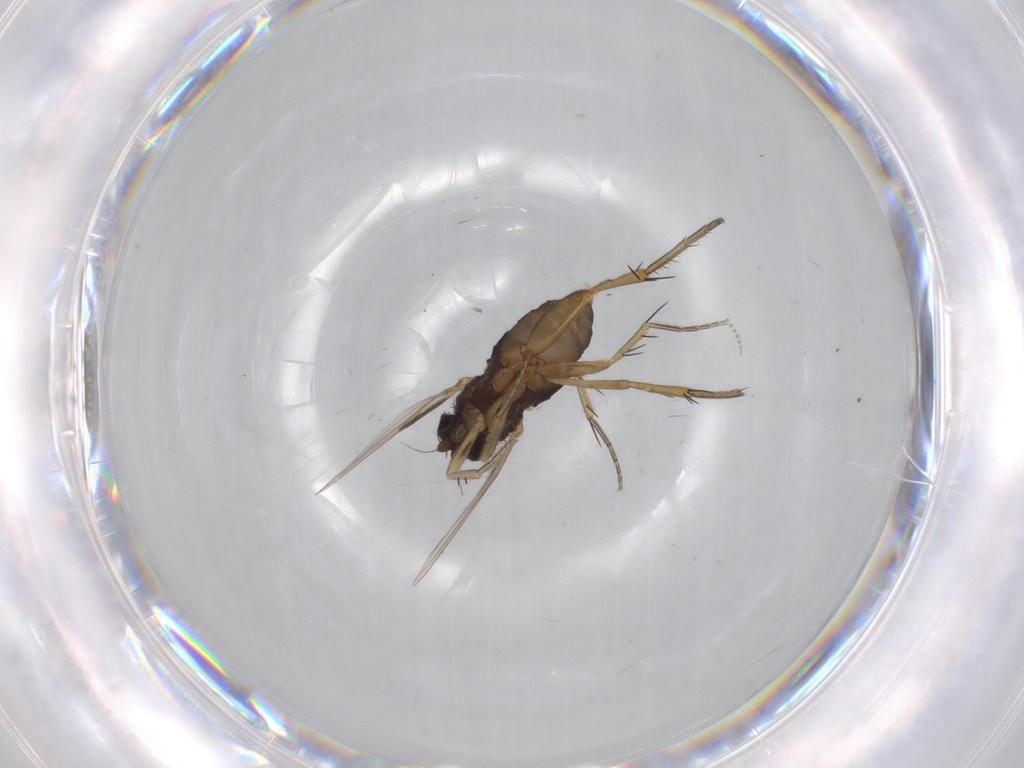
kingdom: Animalia
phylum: Arthropoda
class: Insecta
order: Diptera
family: Phoridae
